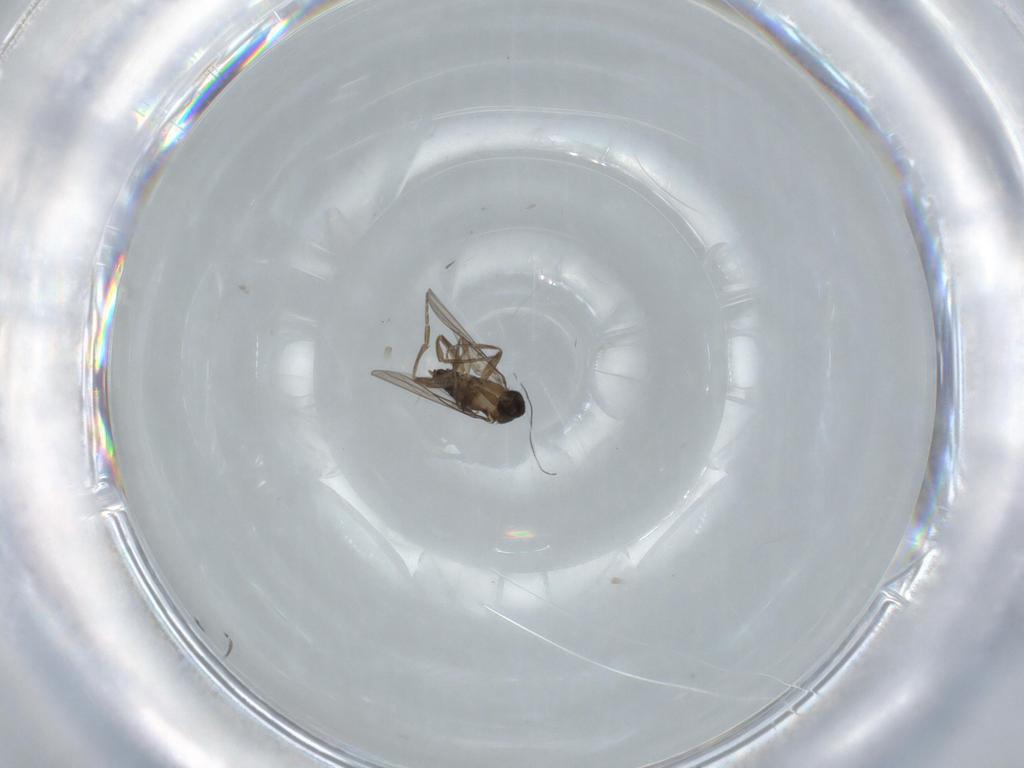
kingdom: Animalia
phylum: Arthropoda
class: Insecta
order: Diptera
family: Phoridae
